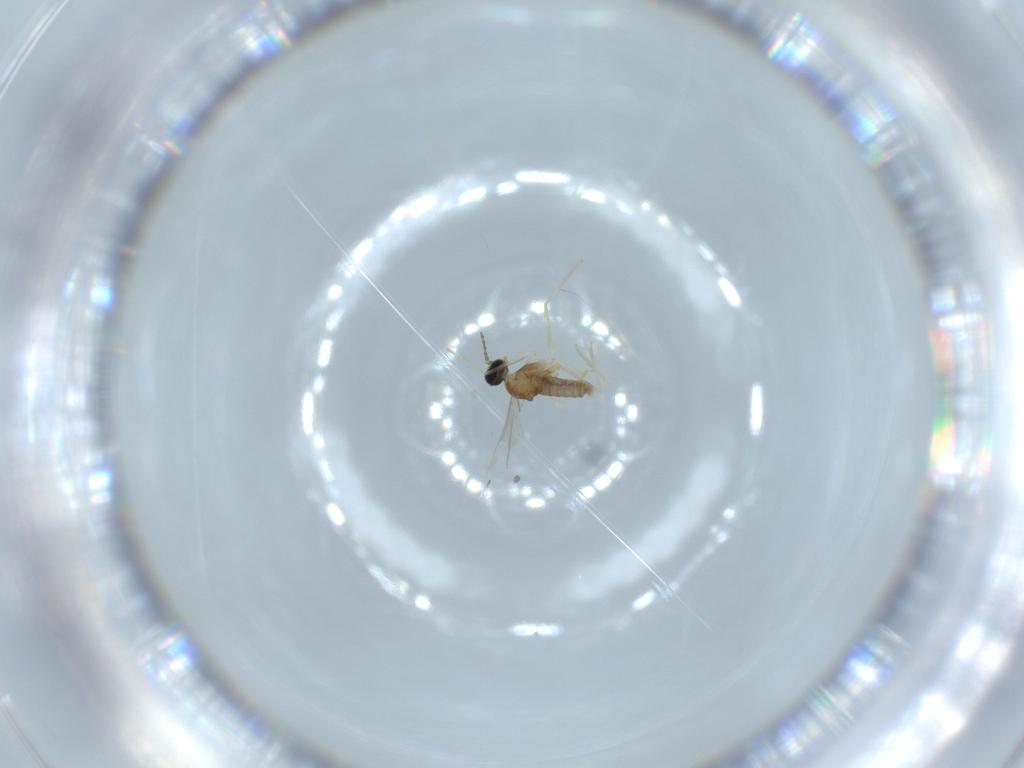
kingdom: Animalia
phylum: Arthropoda
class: Insecta
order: Diptera
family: Cecidomyiidae
